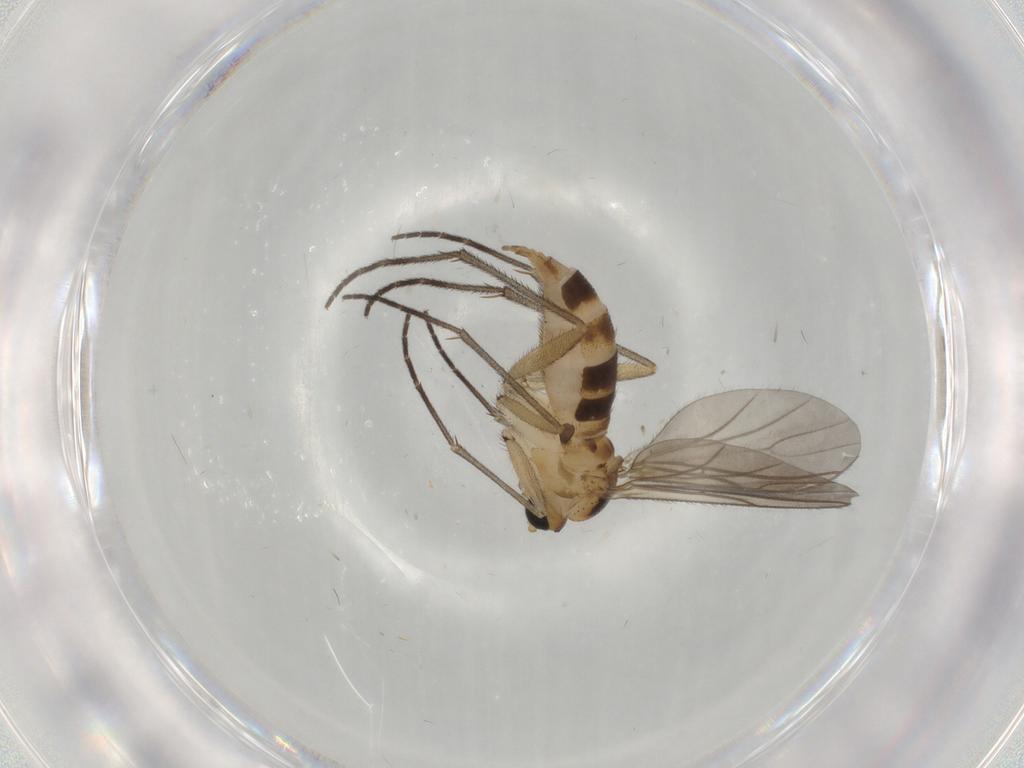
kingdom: Animalia
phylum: Arthropoda
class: Insecta
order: Diptera
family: Sciaridae
